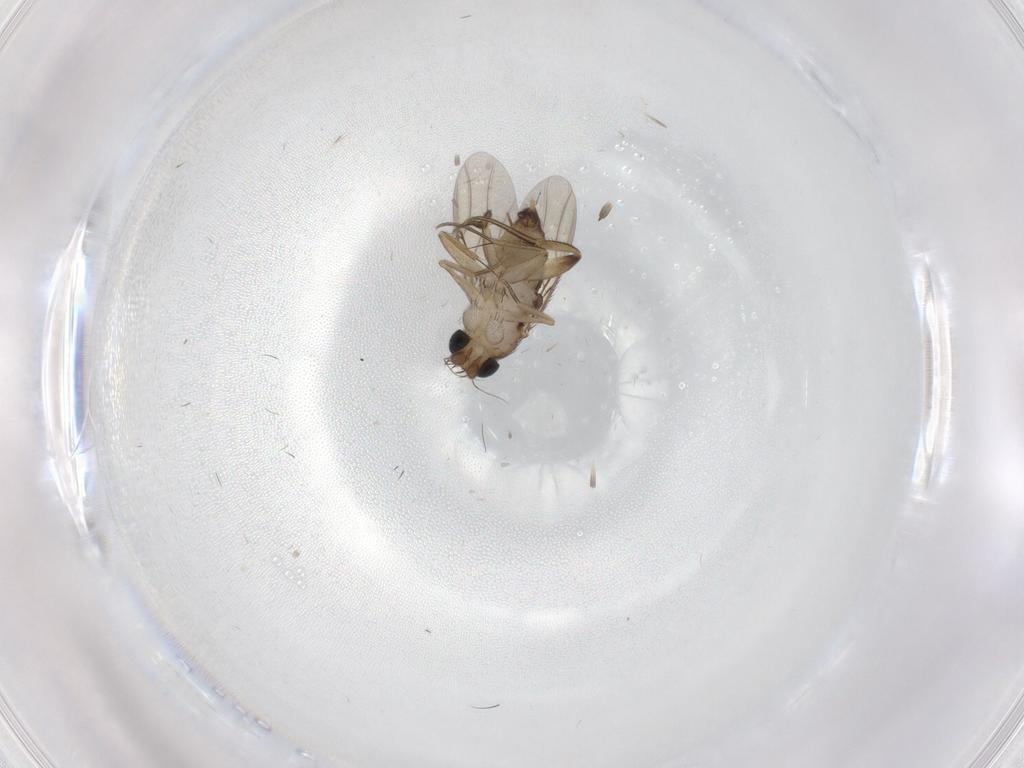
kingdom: Animalia
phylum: Arthropoda
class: Insecta
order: Diptera
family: Phoridae
